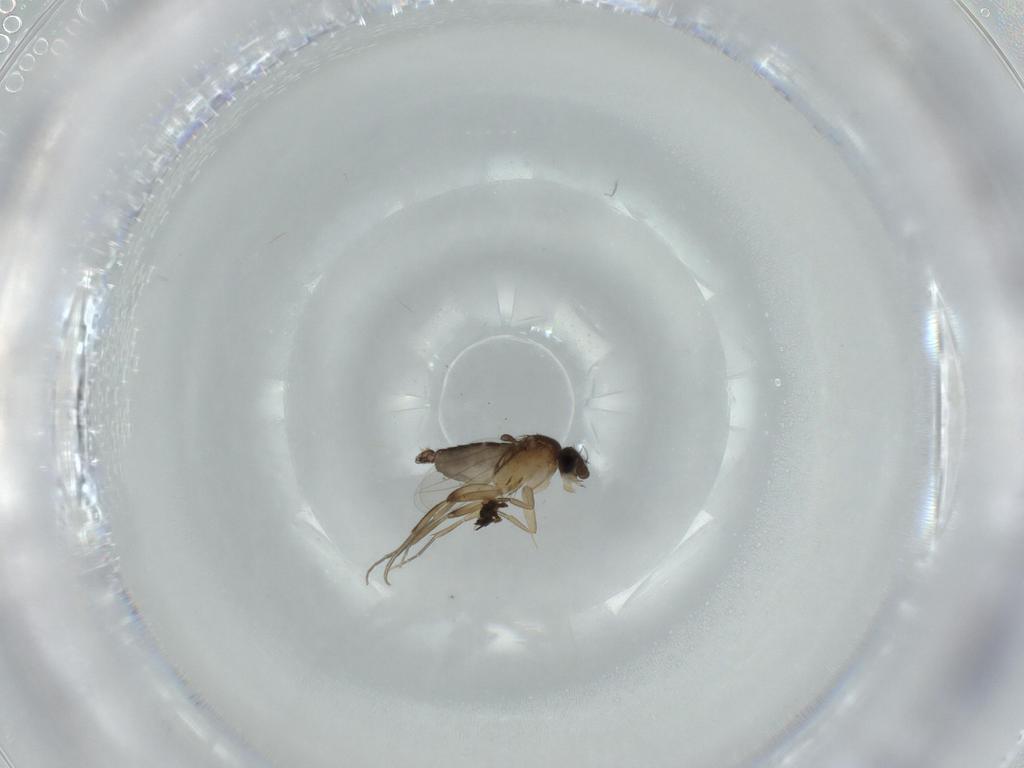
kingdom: Animalia
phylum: Arthropoda
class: Insecta
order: Diptera
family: Phoridae
